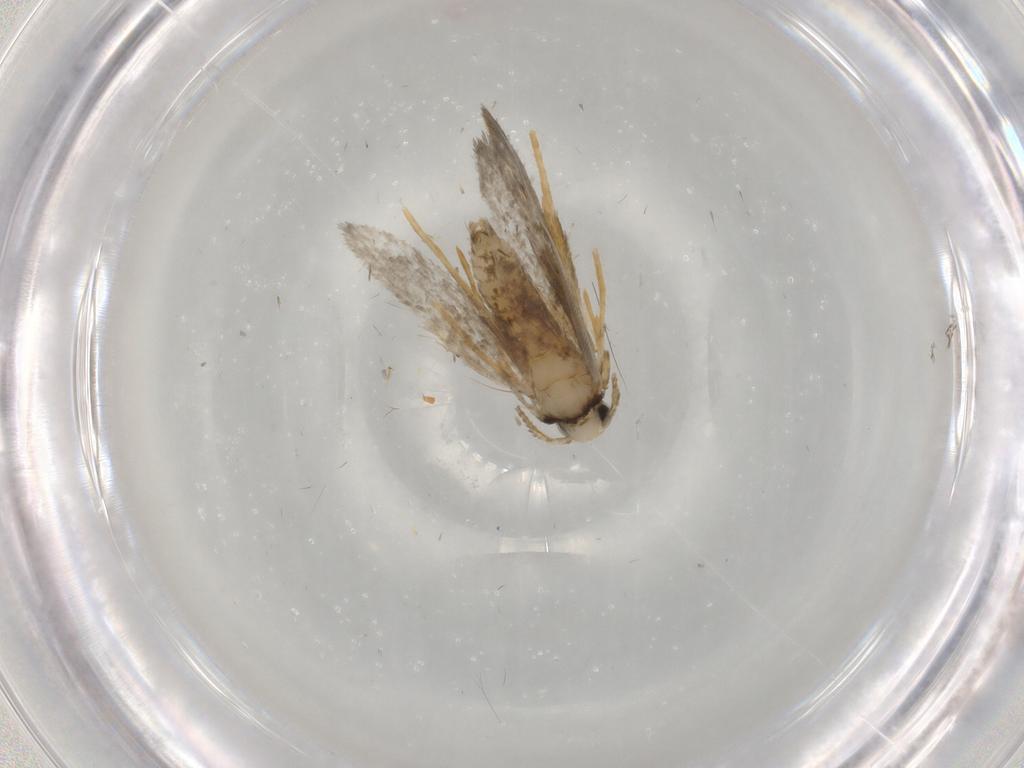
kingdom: Animalia
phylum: Arthropoda
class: Insecta
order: Lepidoptera
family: Psychidae
